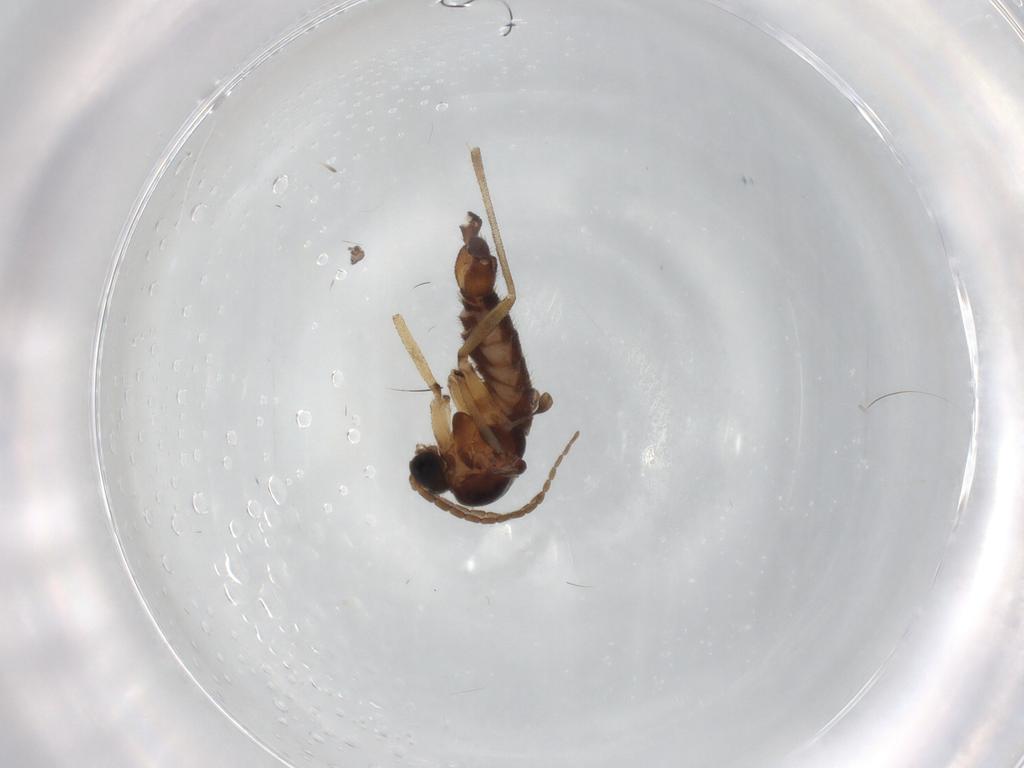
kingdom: Animalia
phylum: Arthropoda
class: Insecta
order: Diptera
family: Sciaridae
